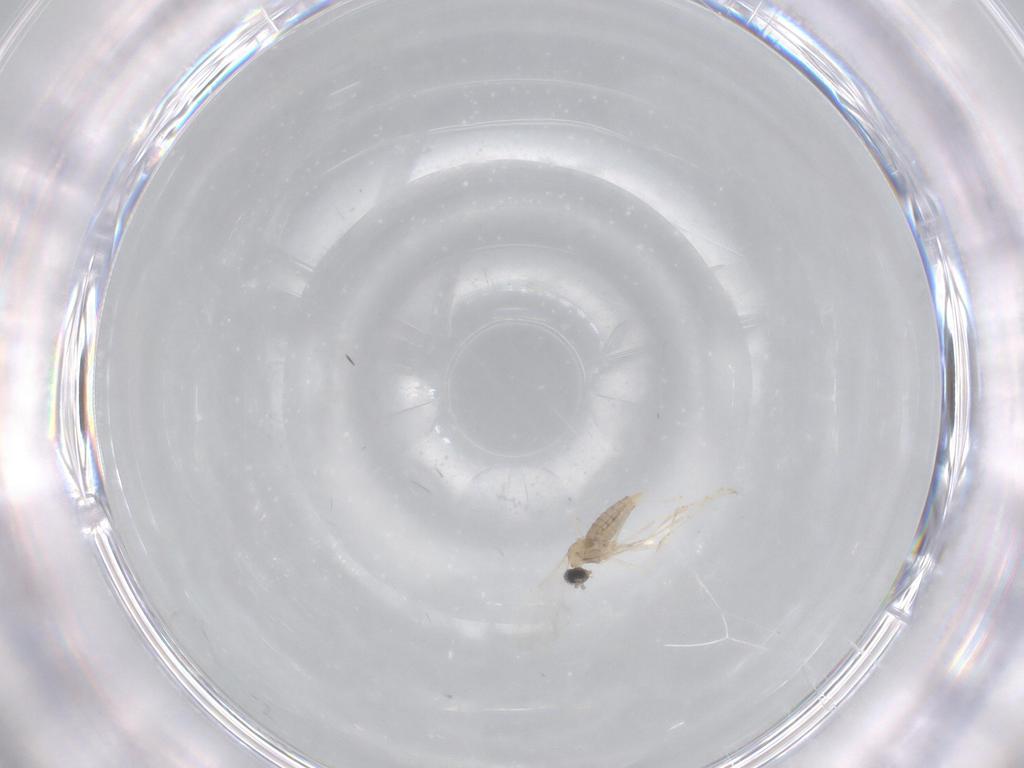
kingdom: Animalia
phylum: Arthropoda
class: Insecta
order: Diptera
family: Cecidomyiidae
